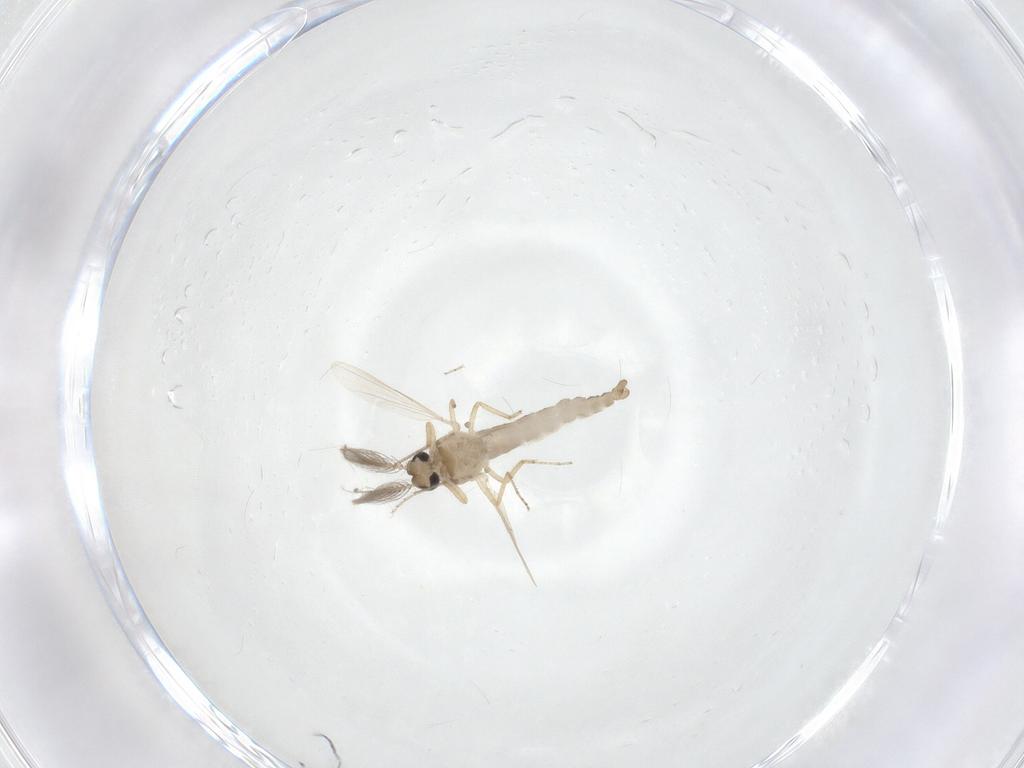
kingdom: Animalia
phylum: Arthropoda
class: Insecta
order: Diptera
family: Ceratopogonidae
